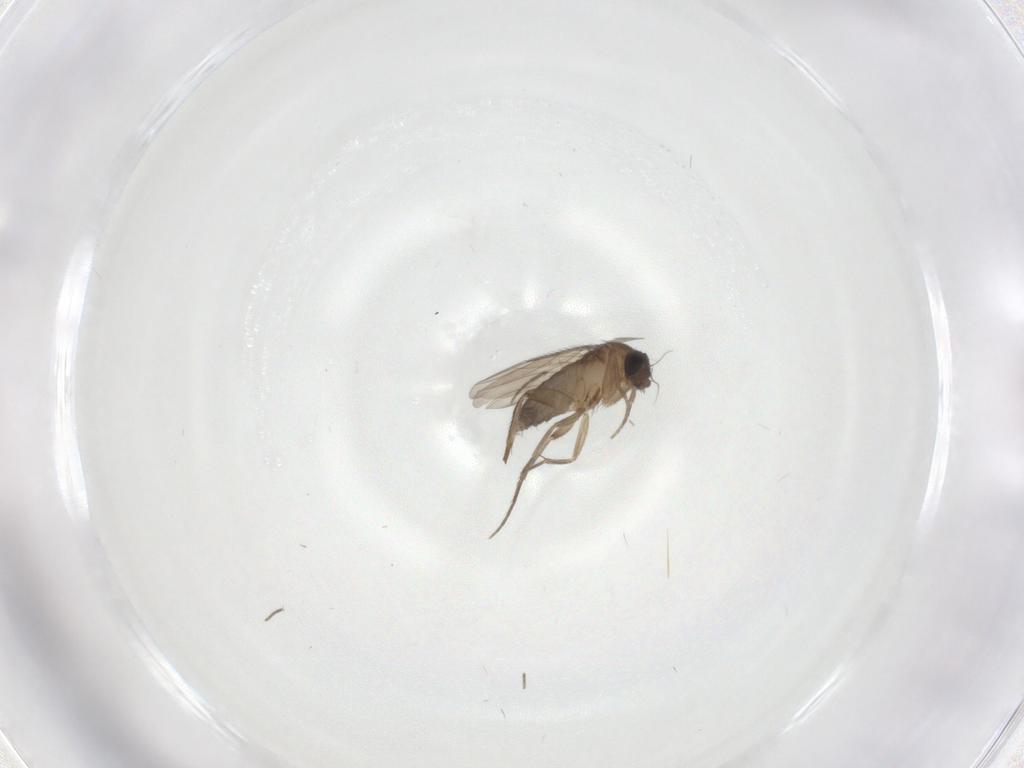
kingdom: Animalia
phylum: Arthropoda
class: Insecta
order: Diptera
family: Phoridae
